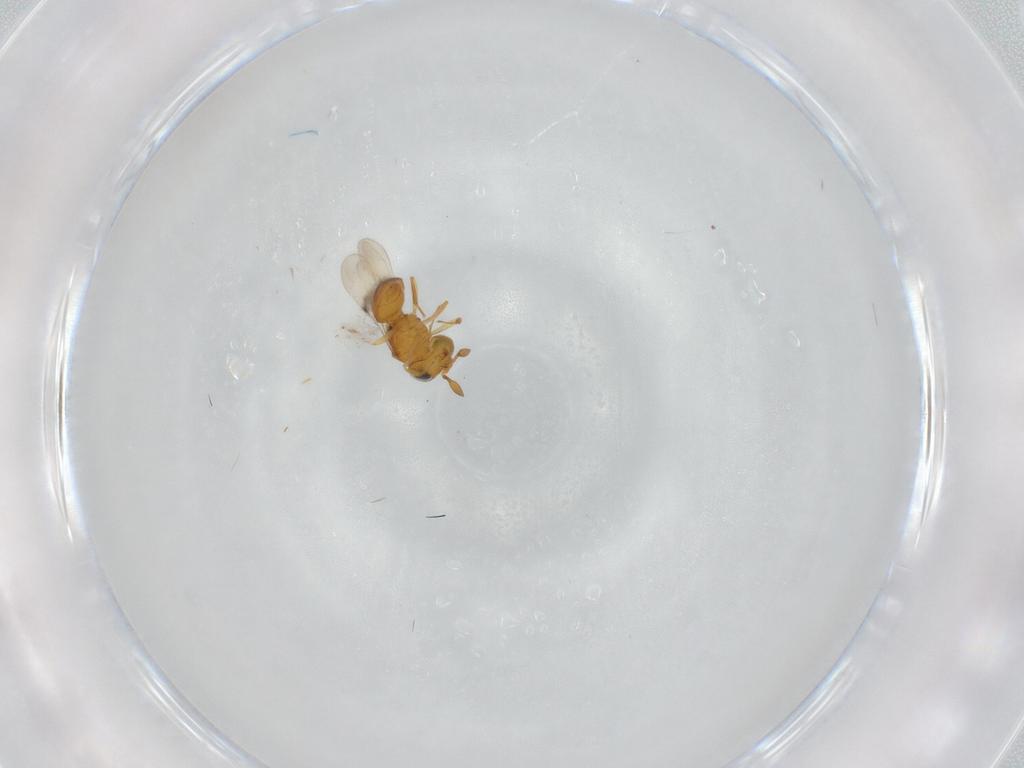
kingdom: Animalia
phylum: Arthropoda
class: Insecta
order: Hymenoptera
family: Scelionidae
